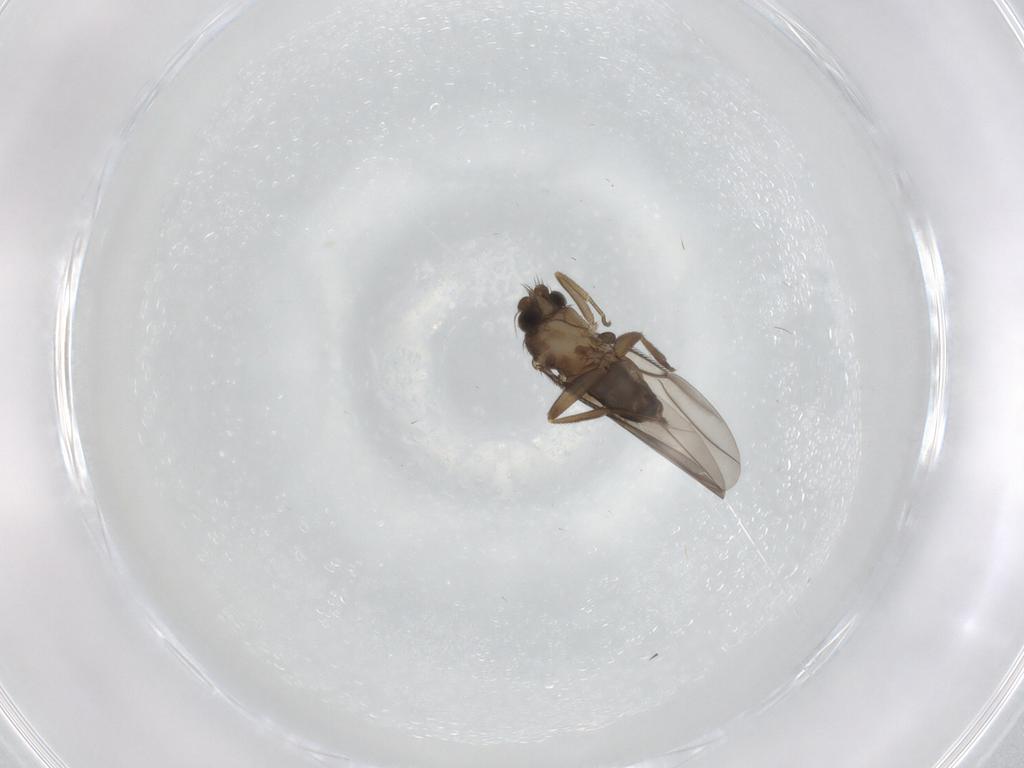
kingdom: Animalia
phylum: Arthropoda
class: Insecta
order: Diptera
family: Phoridae
